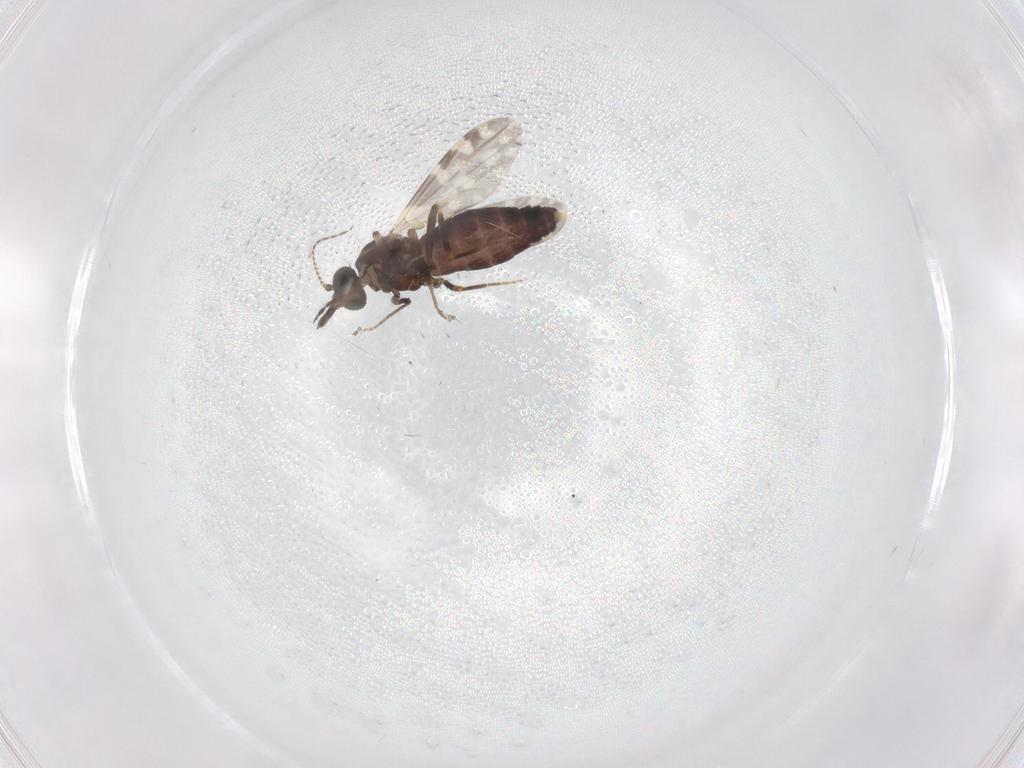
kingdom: Animalia
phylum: Arthropoda
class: Insecta
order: Diptera
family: Ceratopogonidae
